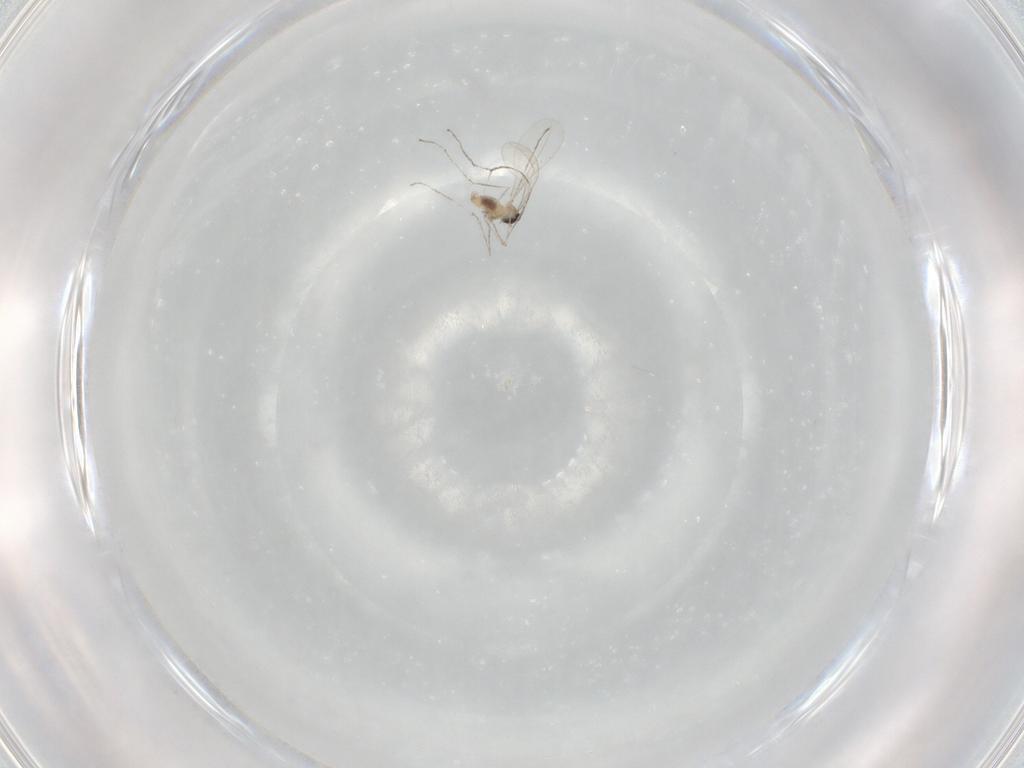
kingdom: Animalia
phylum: Arthropoda
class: Insecta
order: Diptera
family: Cecidomyiidae
